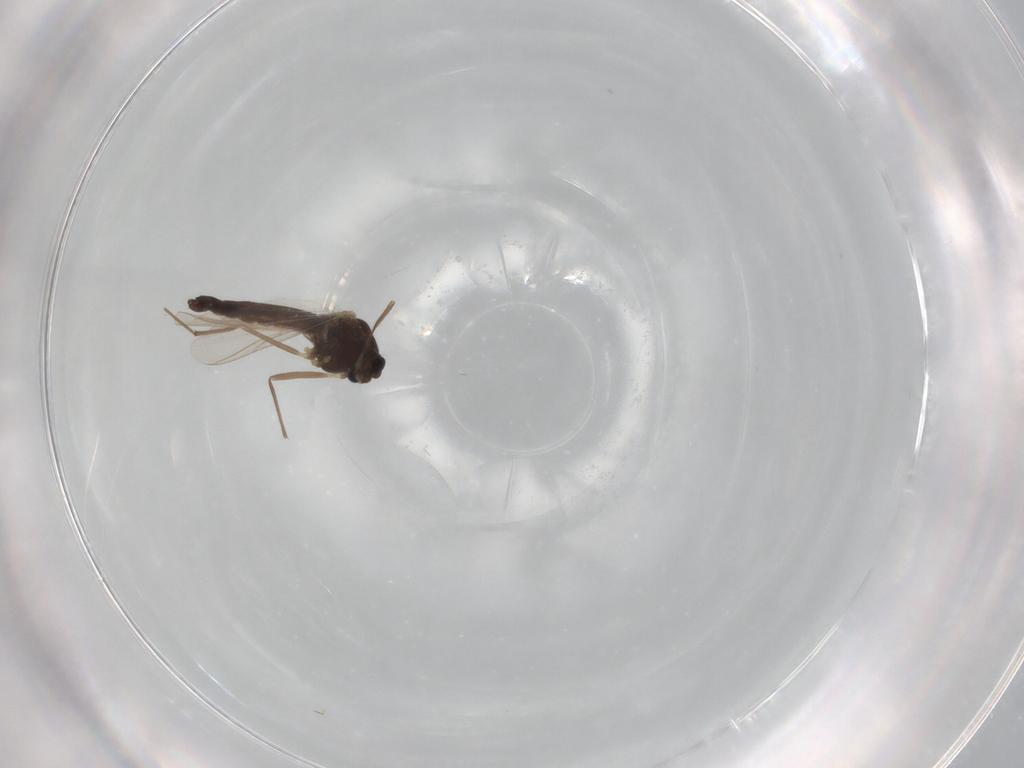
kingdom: Animalia
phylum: Arthropoda
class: Insecta
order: Diptera
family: Chironomidae
